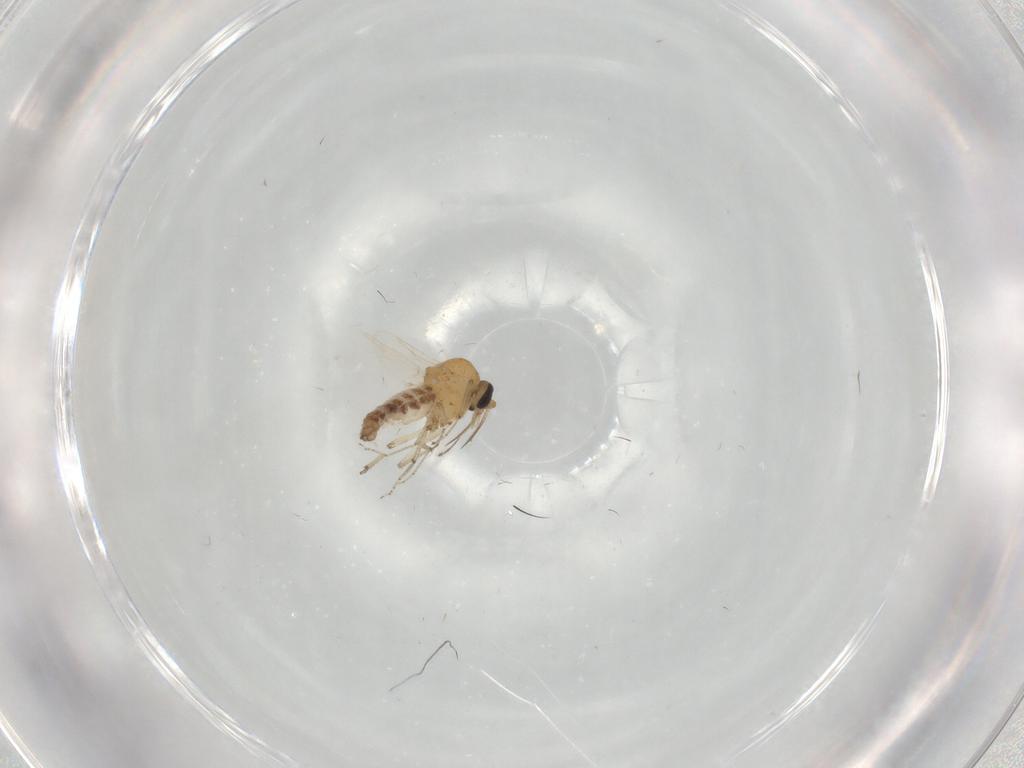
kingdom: Animalia
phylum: Arthropoda
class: Insecta
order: Diptera
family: Ceratopogonidae
